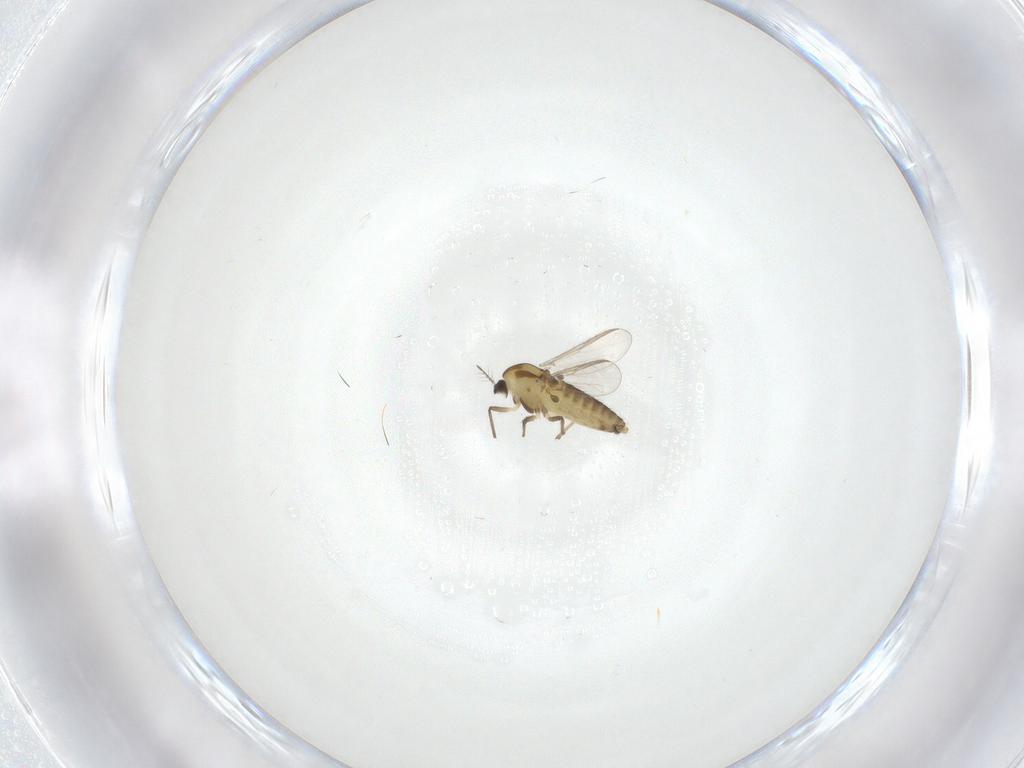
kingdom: Animalia
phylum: Arthropoda
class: Insecta
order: Diptera
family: Chironomidae
